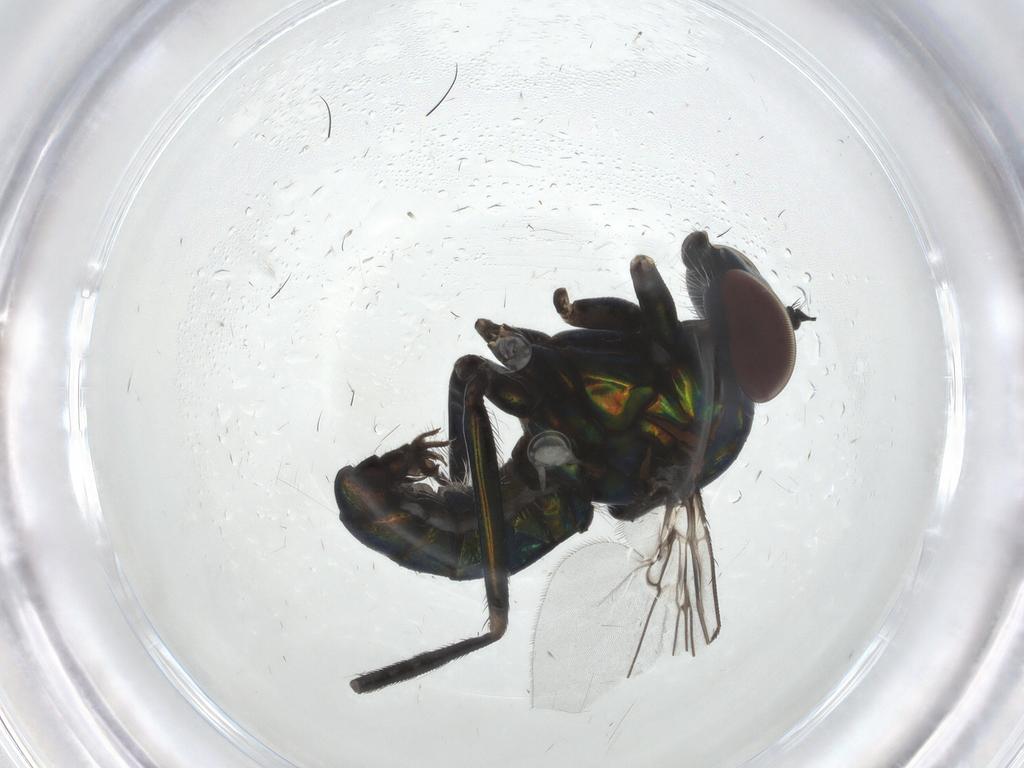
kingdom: Animalia
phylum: Arthropoda
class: Insecta
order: Diptera
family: Dolichopodidae
